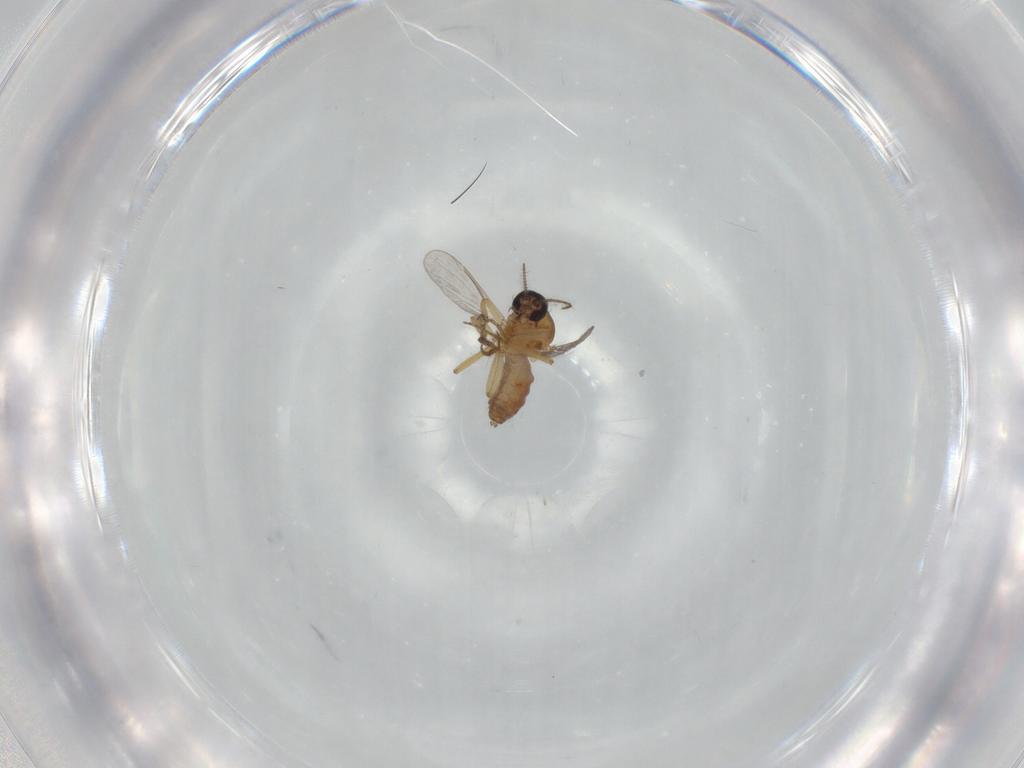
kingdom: Animalia
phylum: Arthropoda
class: Insecta
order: Diptera
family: Ceratopogonidae
